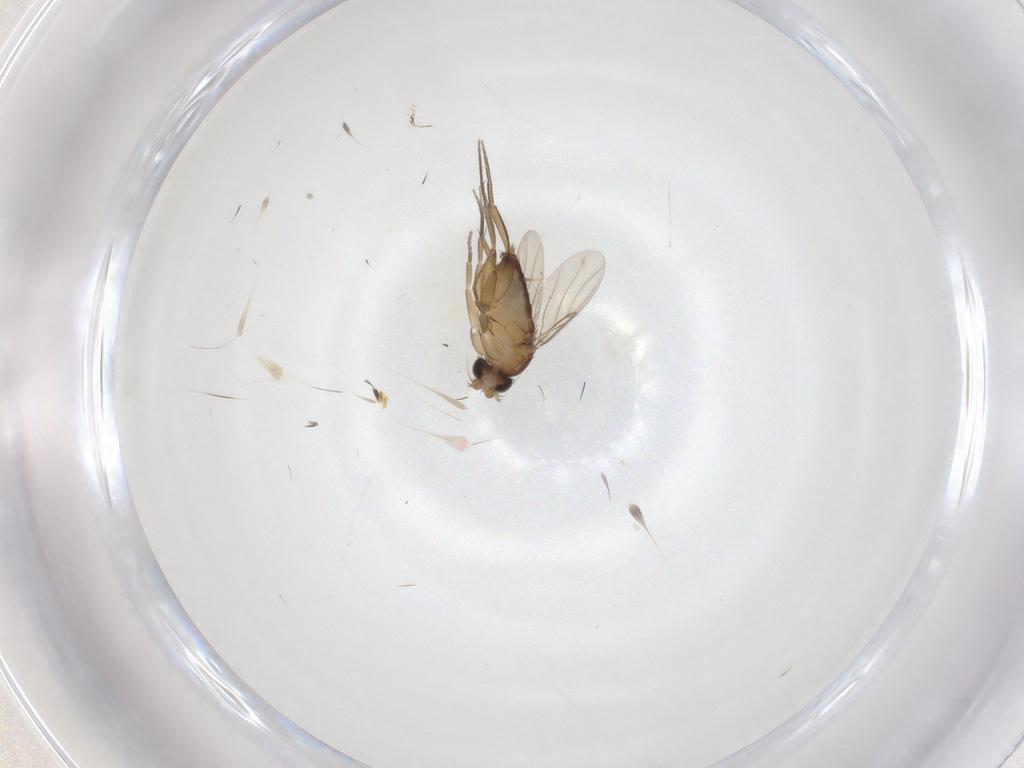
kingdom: Animalia
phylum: Arthropoda
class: Insecta
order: Diptera
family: Phoridae
